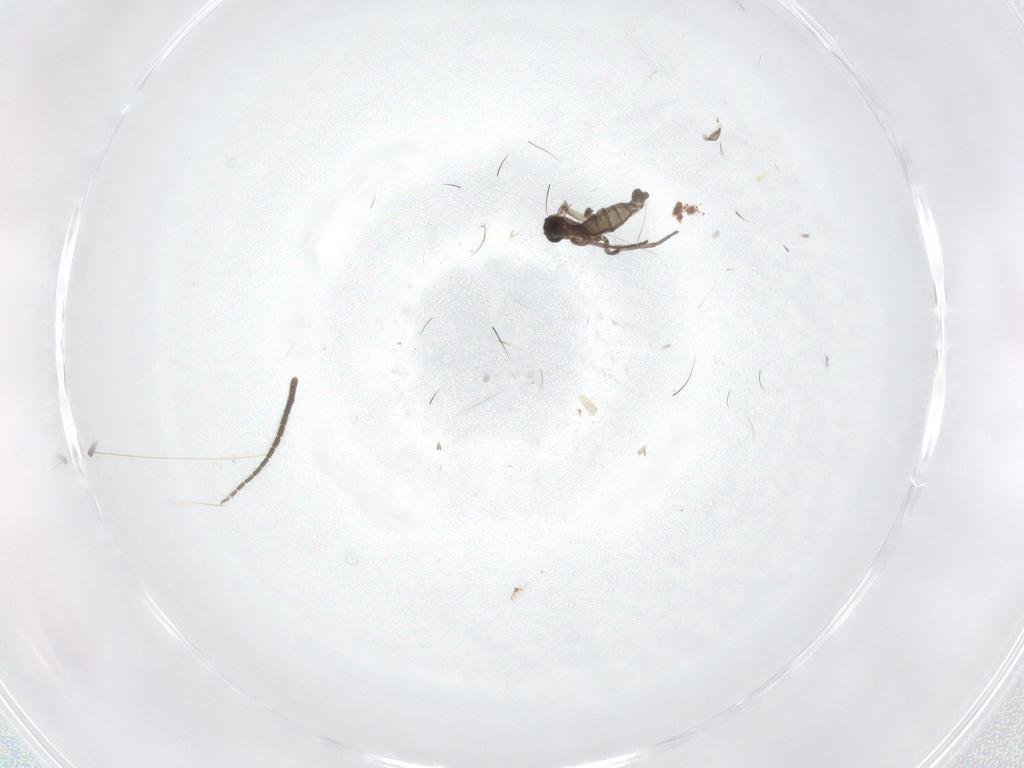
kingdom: Animalia
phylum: Arthropoda
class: Insecta
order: Diptera
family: Sciaridae
